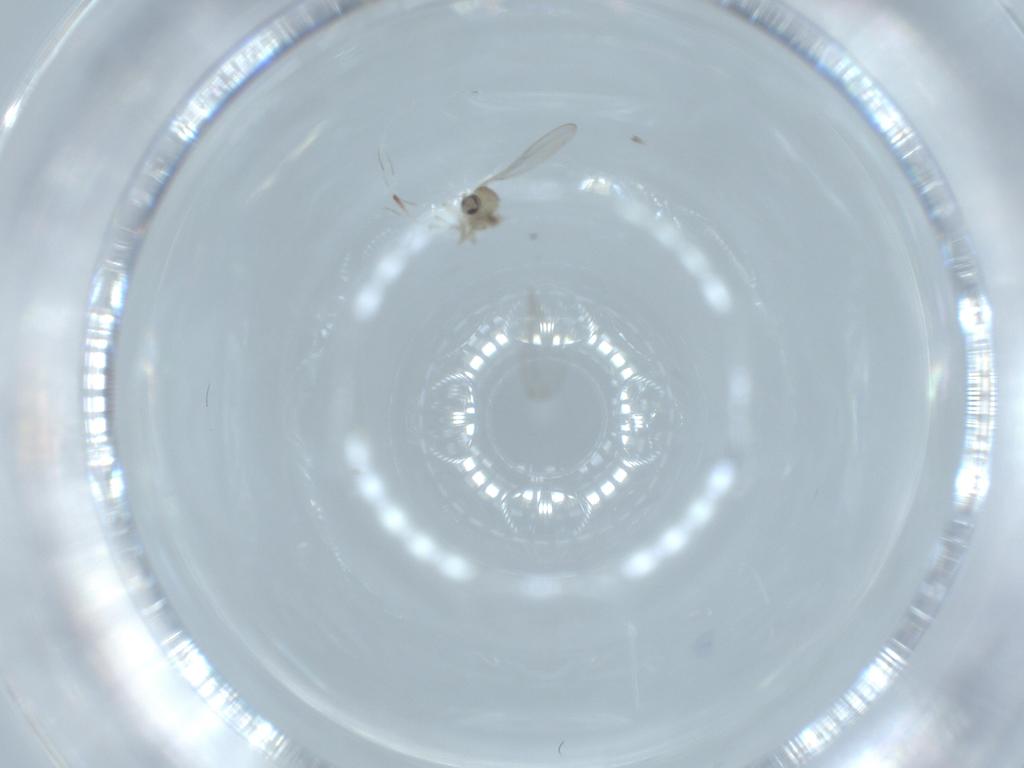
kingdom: Animalia
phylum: Arthropoda
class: Insecta
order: Diptera
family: Cecidomyiidae
